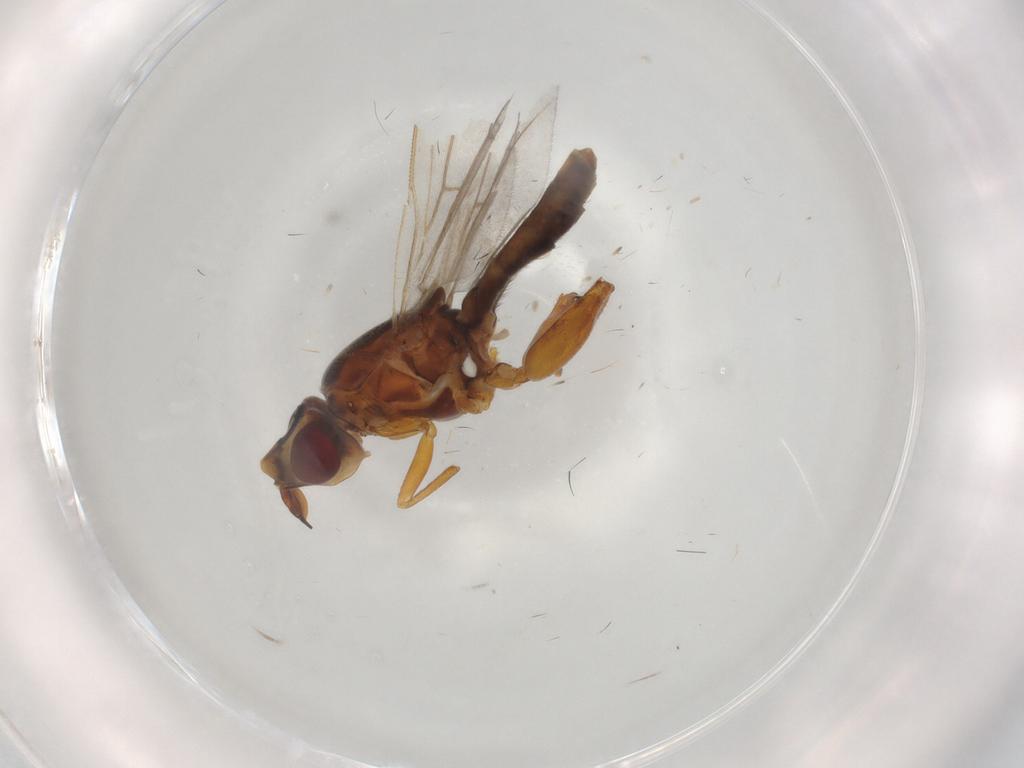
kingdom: Animalia
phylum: Arthropoda
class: Insecta
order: Diptera
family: Chloropidae
